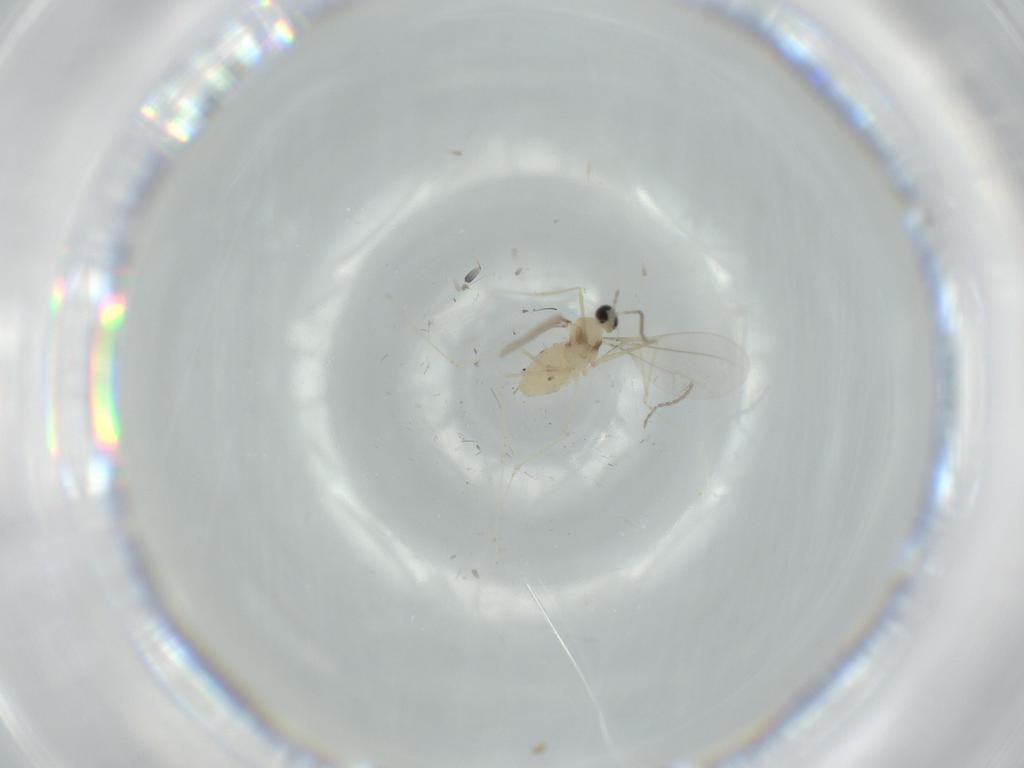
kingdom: Animalia
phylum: Arthropoda
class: Insecta
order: Diptera
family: Cecidomyiidae
